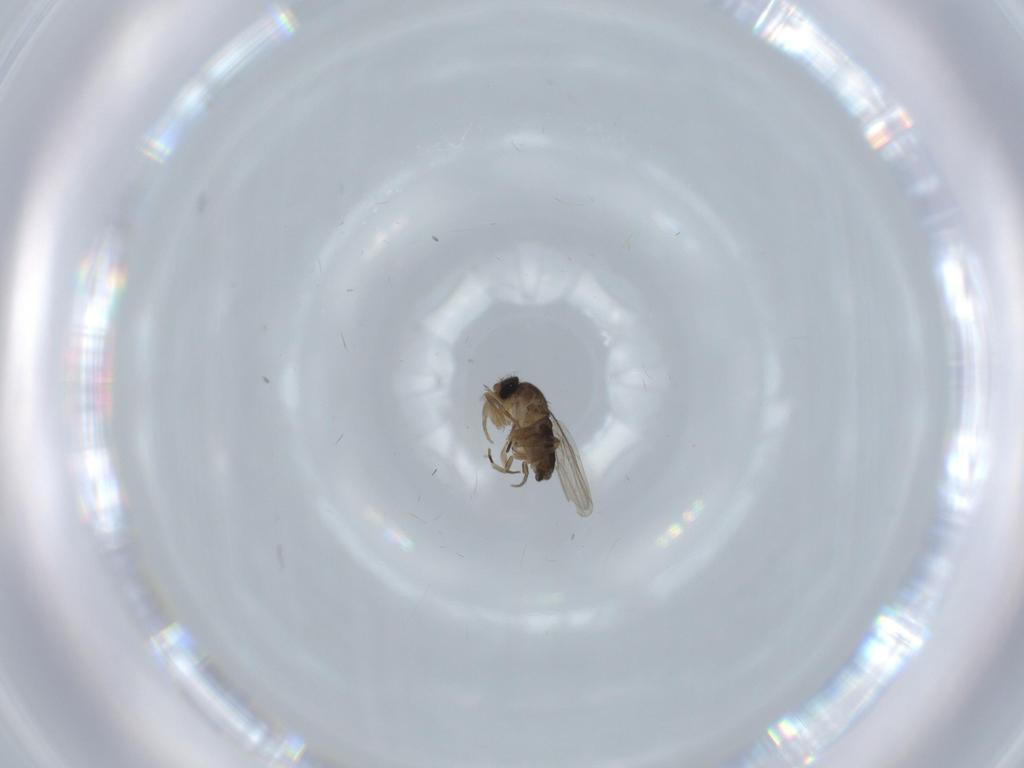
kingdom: Animalia
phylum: Arthropoda
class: Insecta
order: Diptera
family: Phoridae
